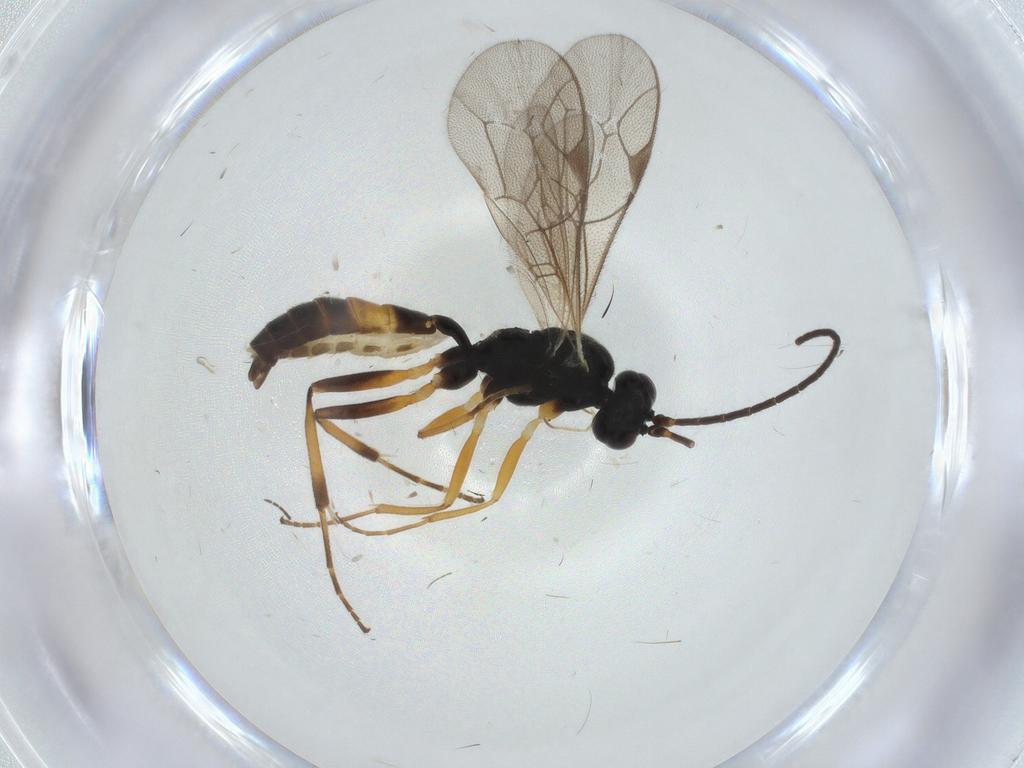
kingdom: Animalia
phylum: Arthropoda
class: Insecta
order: Hymenoptera
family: Ichneumonidae
